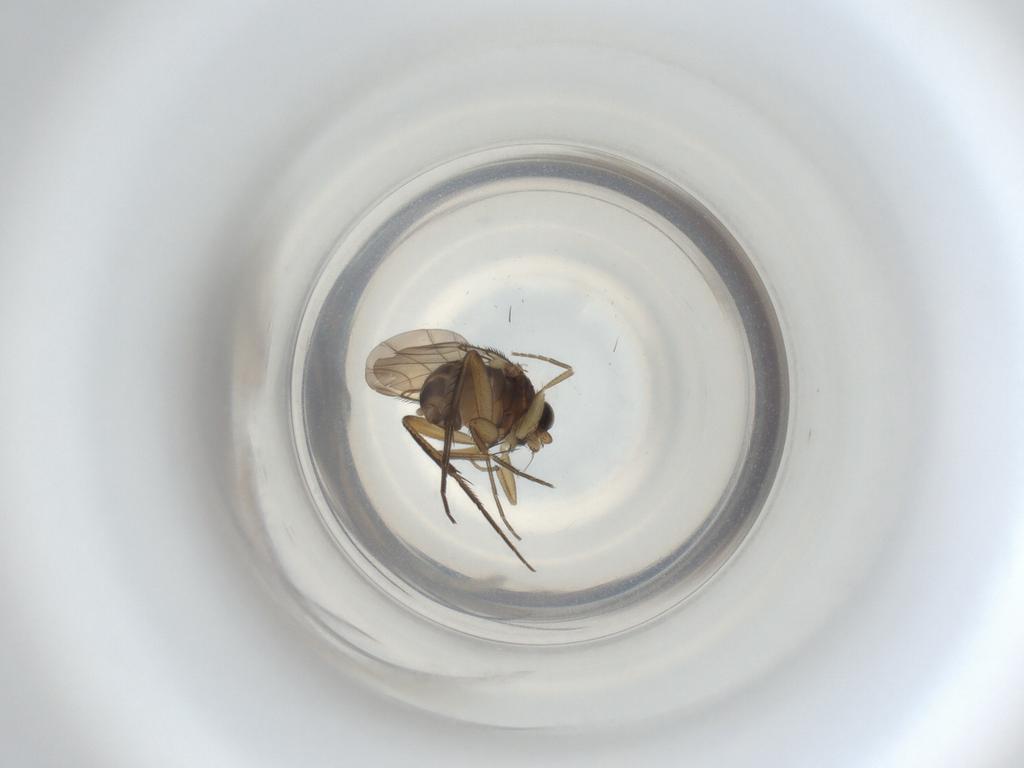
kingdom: Animalia
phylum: Arthropoda
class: Insecta
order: Diptera
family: Phoridae
